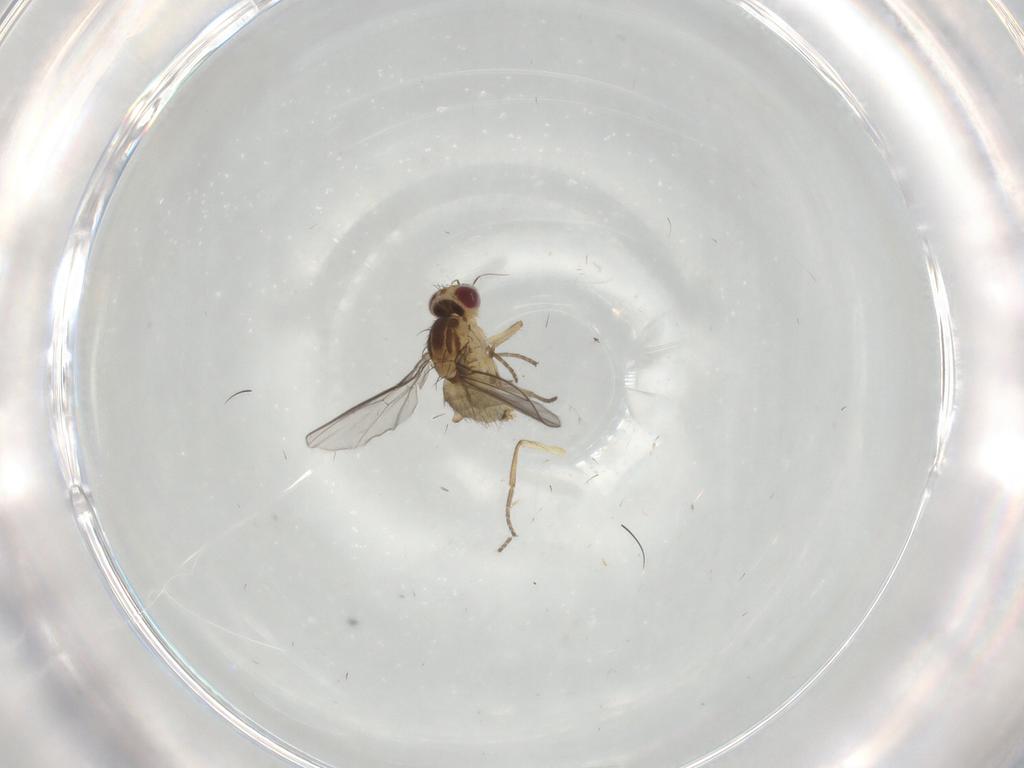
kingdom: Animalia
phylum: Arthropoda
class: Insecta
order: Diptera
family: Agromyzidae
